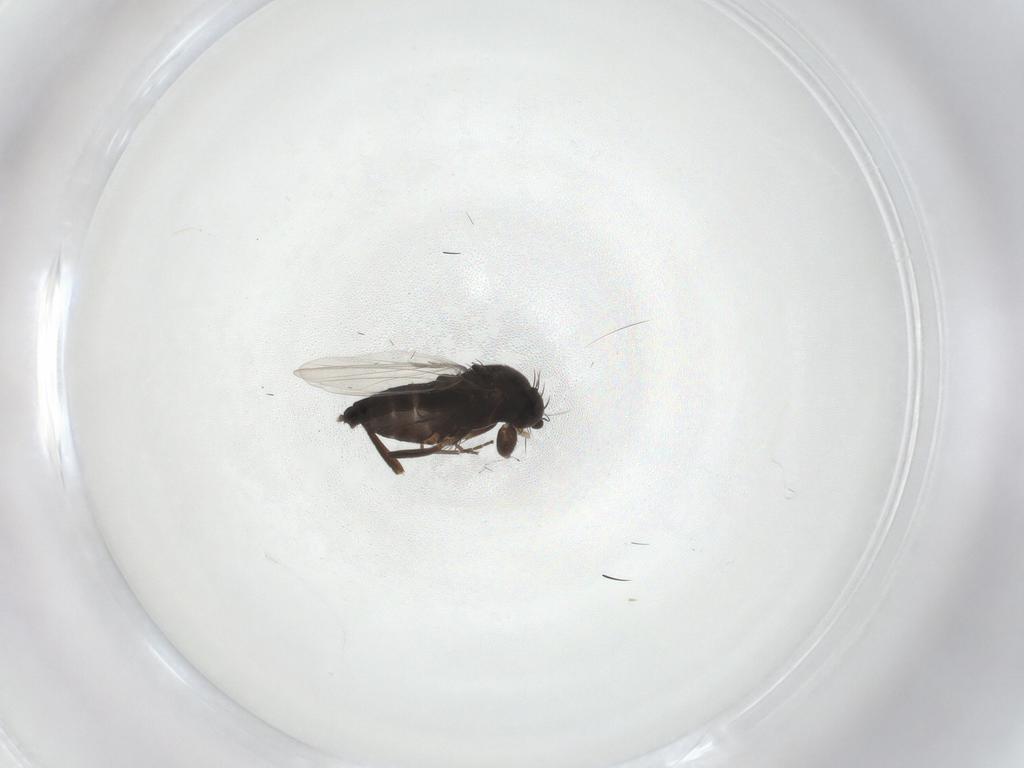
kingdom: Animalia
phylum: Arthropoda
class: Insecta
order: Diptera
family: Phoridae
